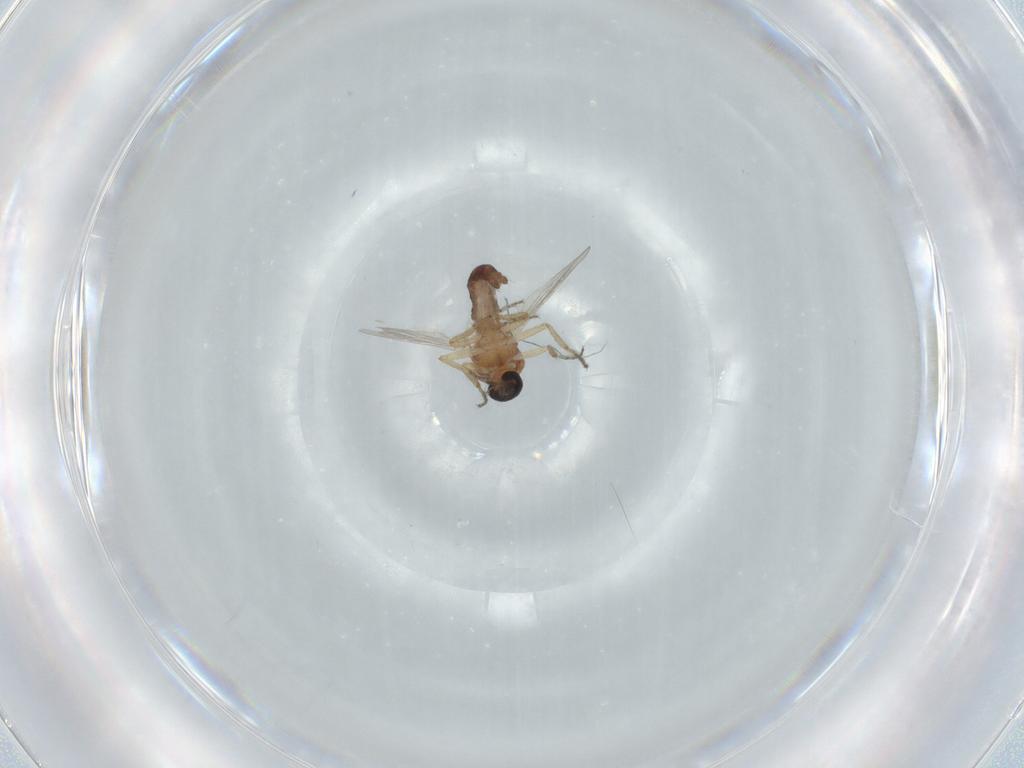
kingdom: Animalia
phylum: Arthropoda
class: Insecta
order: Diptera
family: Ceratopogonidae
